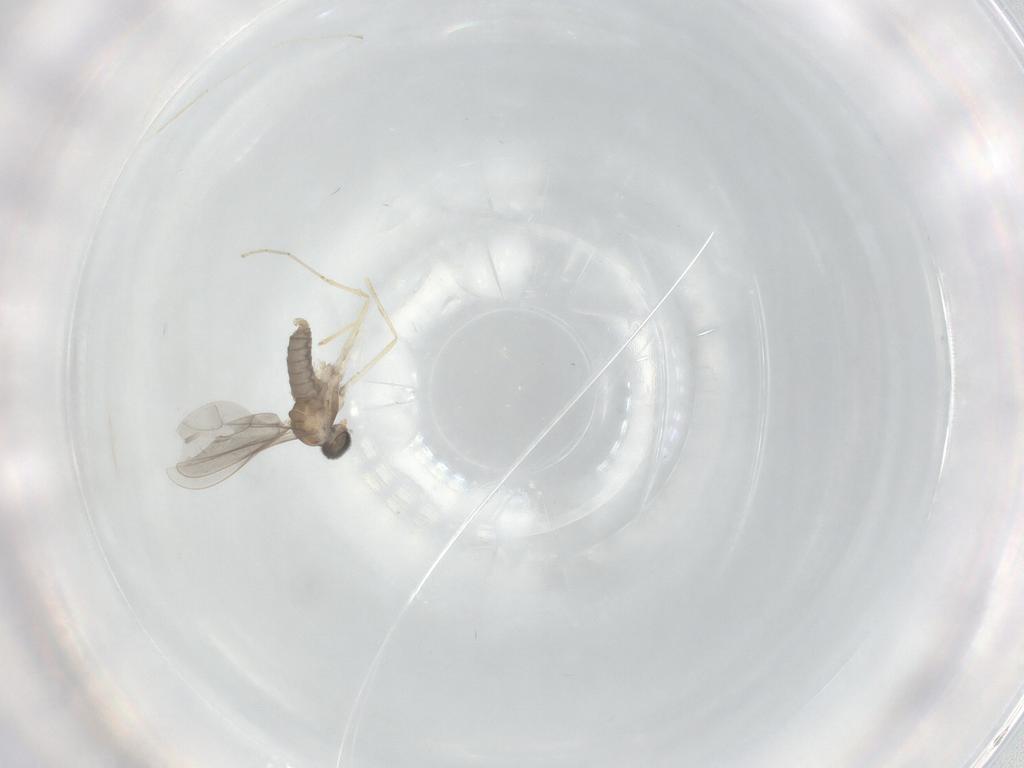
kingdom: Animalia
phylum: Arthropoda
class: Insecta
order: Diptera
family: Cecidomyiidae
